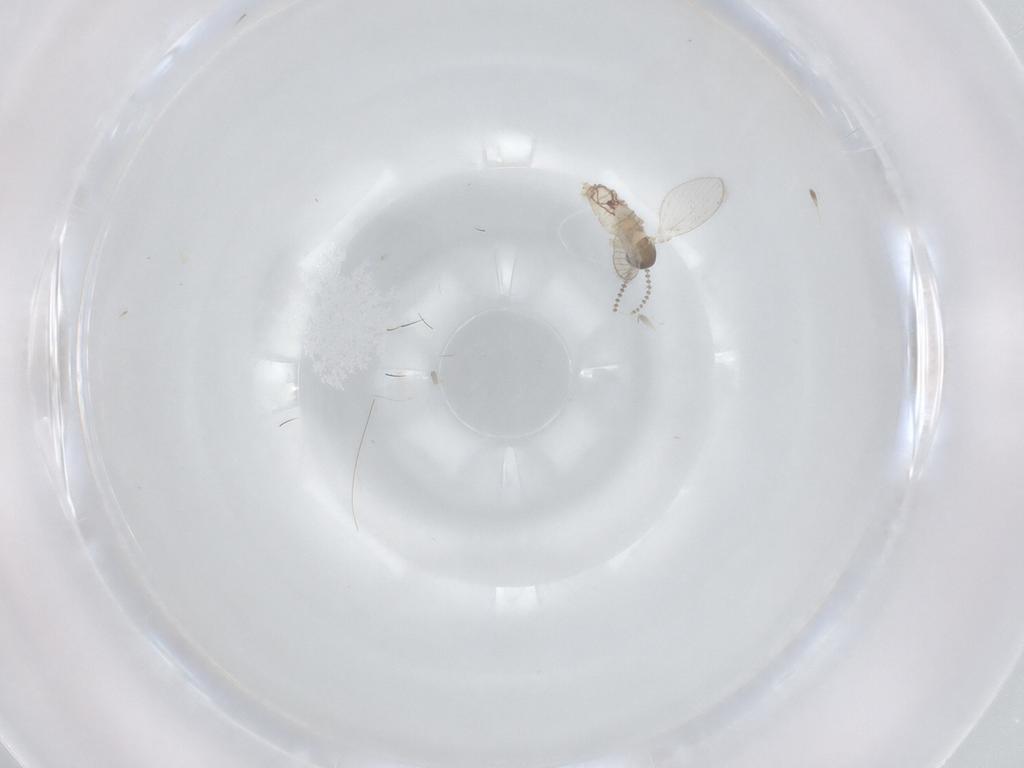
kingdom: Animalia
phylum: Arthropoda
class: Insecta
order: Diptera
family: Cecidomyiidae
